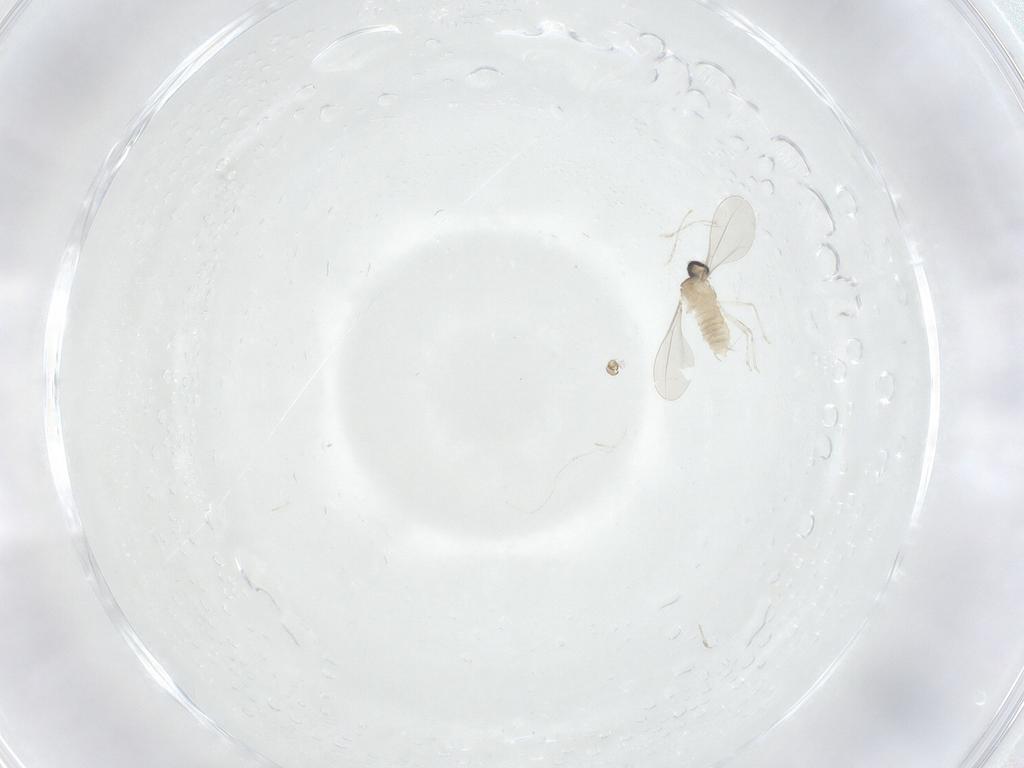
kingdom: Animalia
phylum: Arthropoda
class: Insecta
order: Diptera
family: Cecidomyiidae
